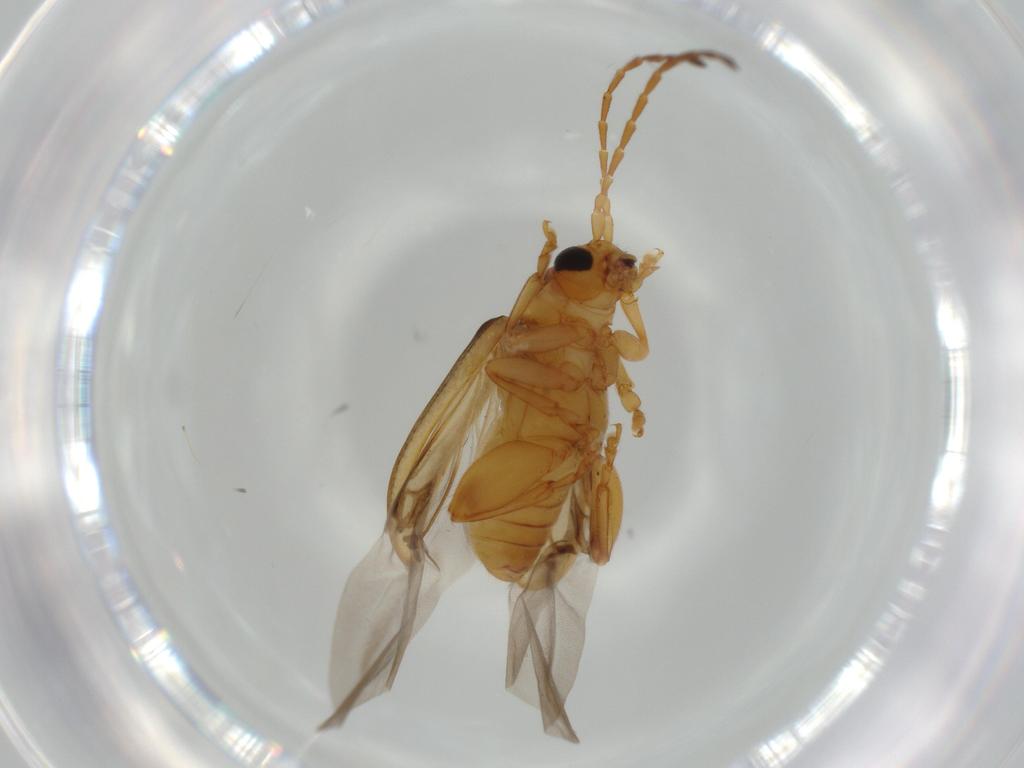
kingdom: Animalia
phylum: Arthropoda
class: Insecta
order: Coleoptera
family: Chrysomelidae
